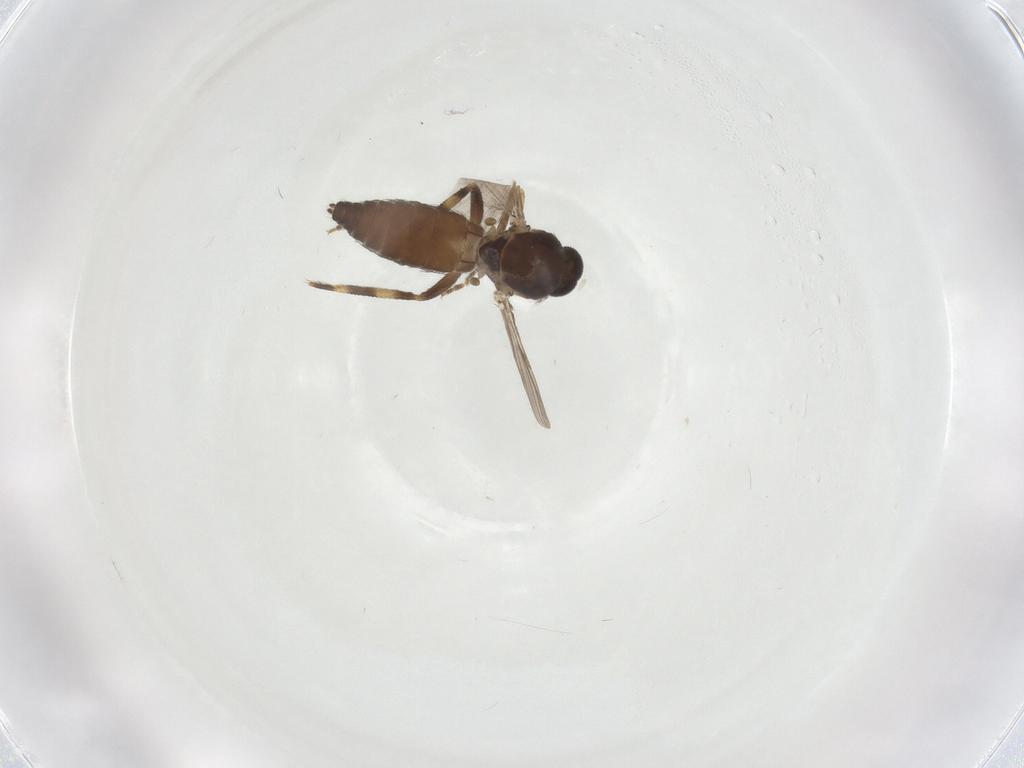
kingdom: Animalia
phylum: Arthropoda
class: Insecta
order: Diptera
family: Ceratopogonidae
